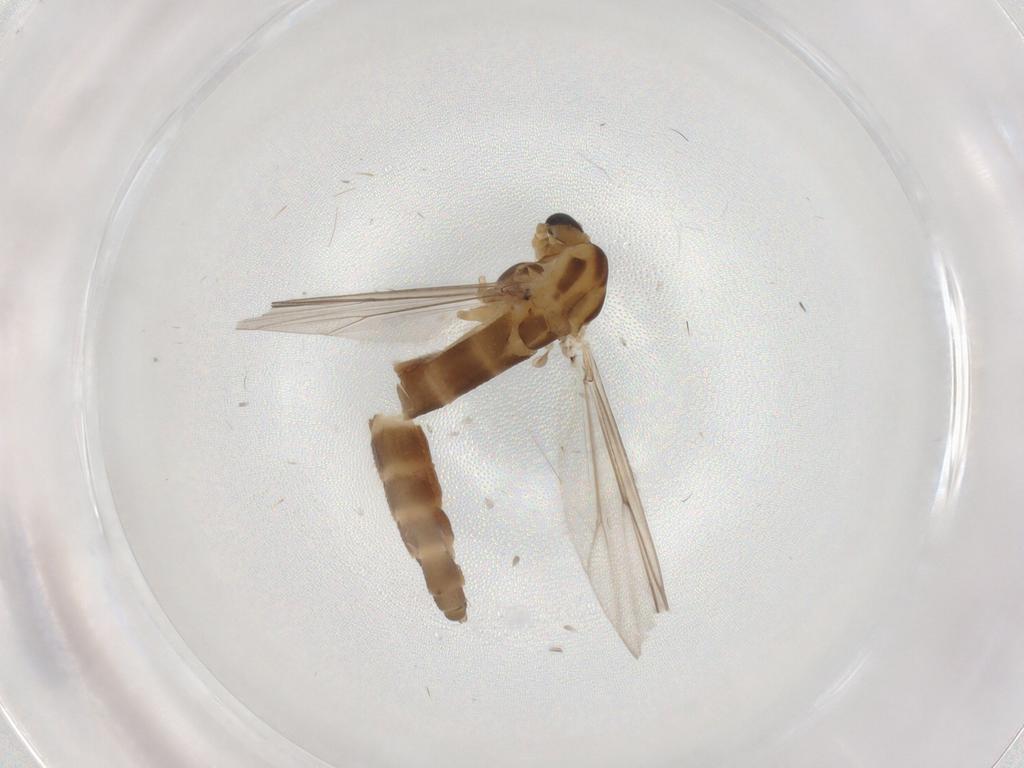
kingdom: Animalia
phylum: Arthropoda
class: Insecta
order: Diptera
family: Chironomidae
